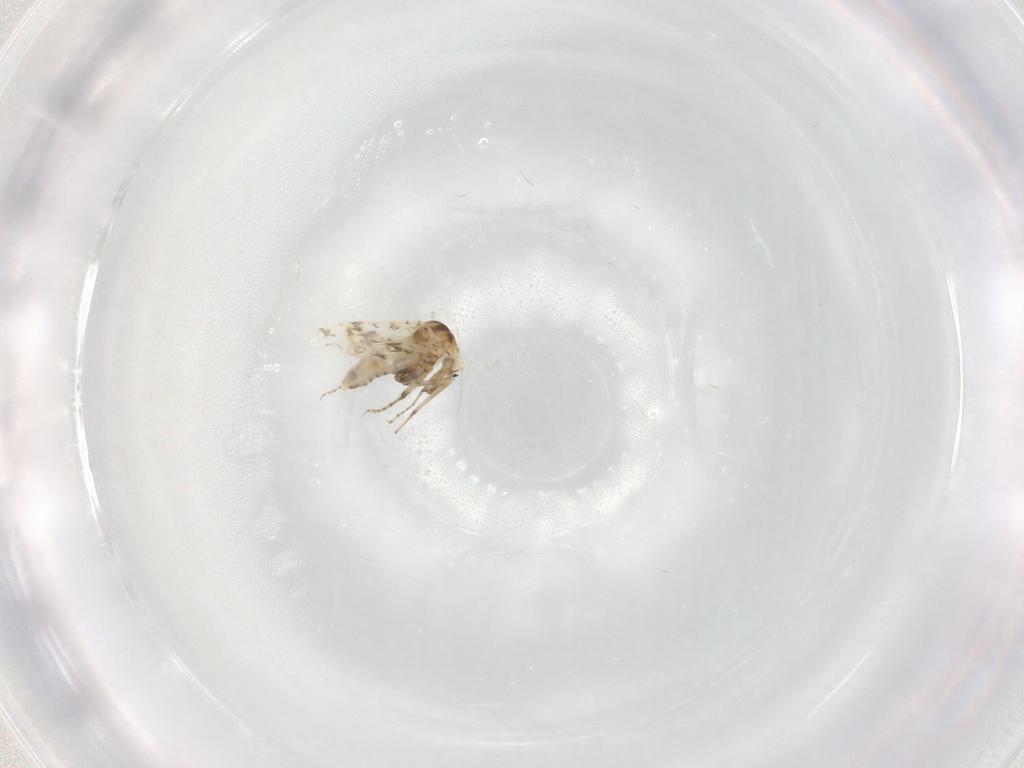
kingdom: Animalia
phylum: Arthropoda
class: Insecta
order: Diptera
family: Ceratopogonidae
